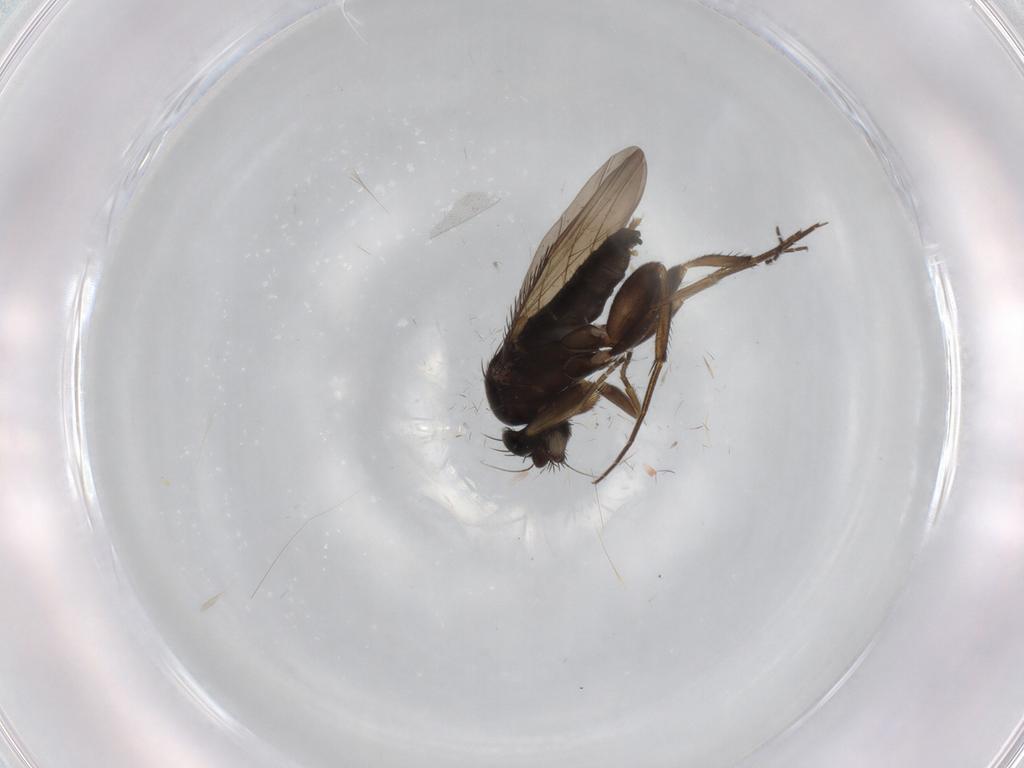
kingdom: Animalia
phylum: Arthropoda
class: Insecta
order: Diptera
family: Phoridae
